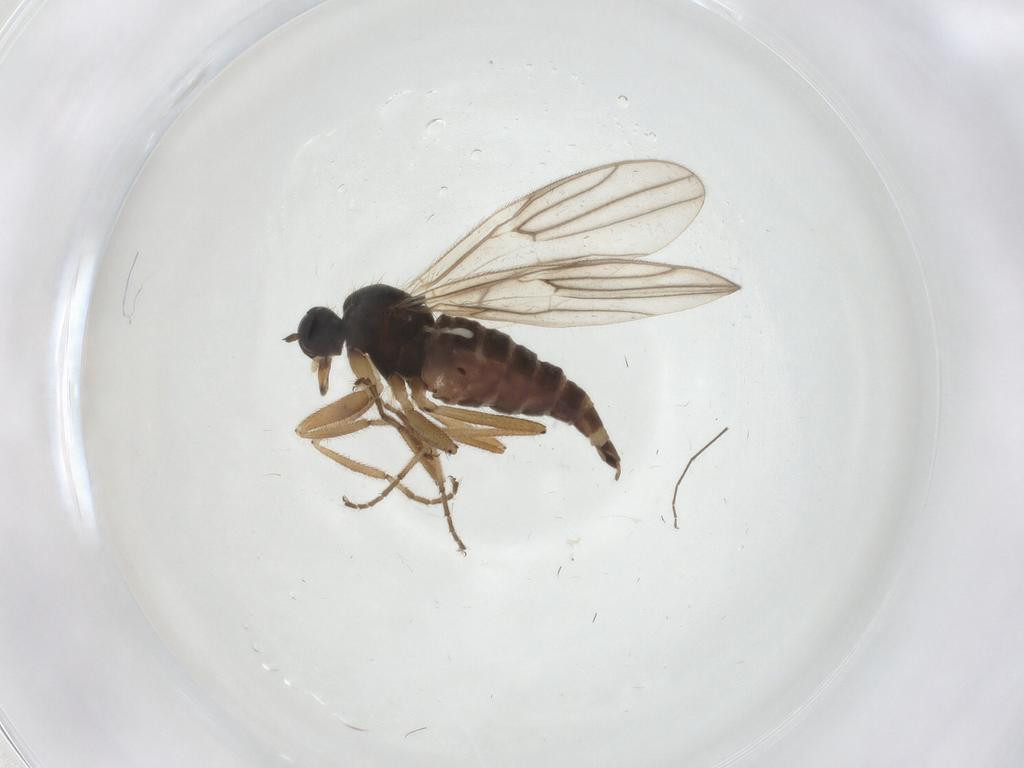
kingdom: Animalia
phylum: Arthropoda
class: Insecta
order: Diptera
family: Hybotidae
